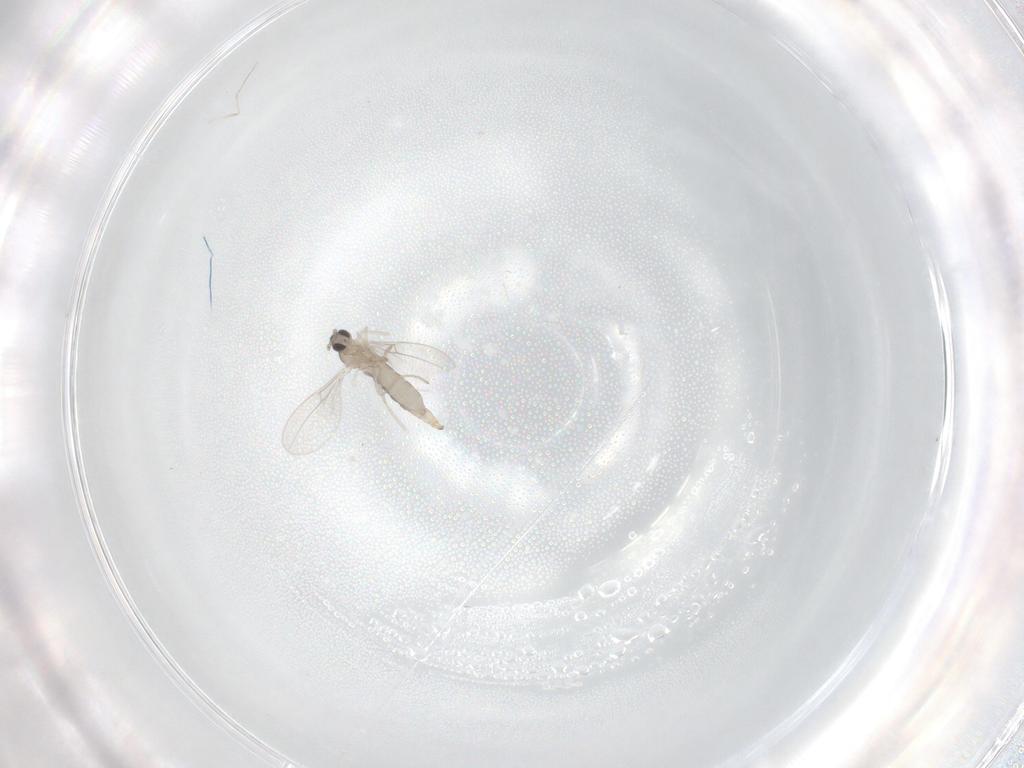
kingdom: Animalia
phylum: Arthropoda
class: Insecta
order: Diptera
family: Cecidomyiidae
